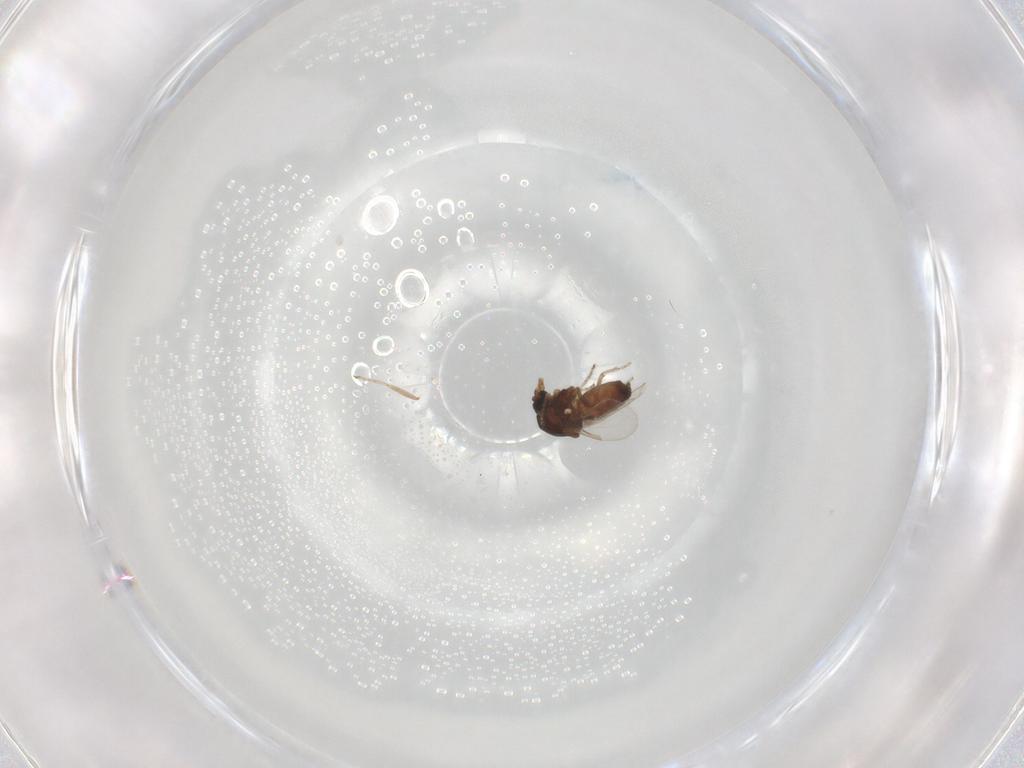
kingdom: Animalia
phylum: Arthropoda
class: Insecta
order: Diptera
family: Ceratopogonidae
